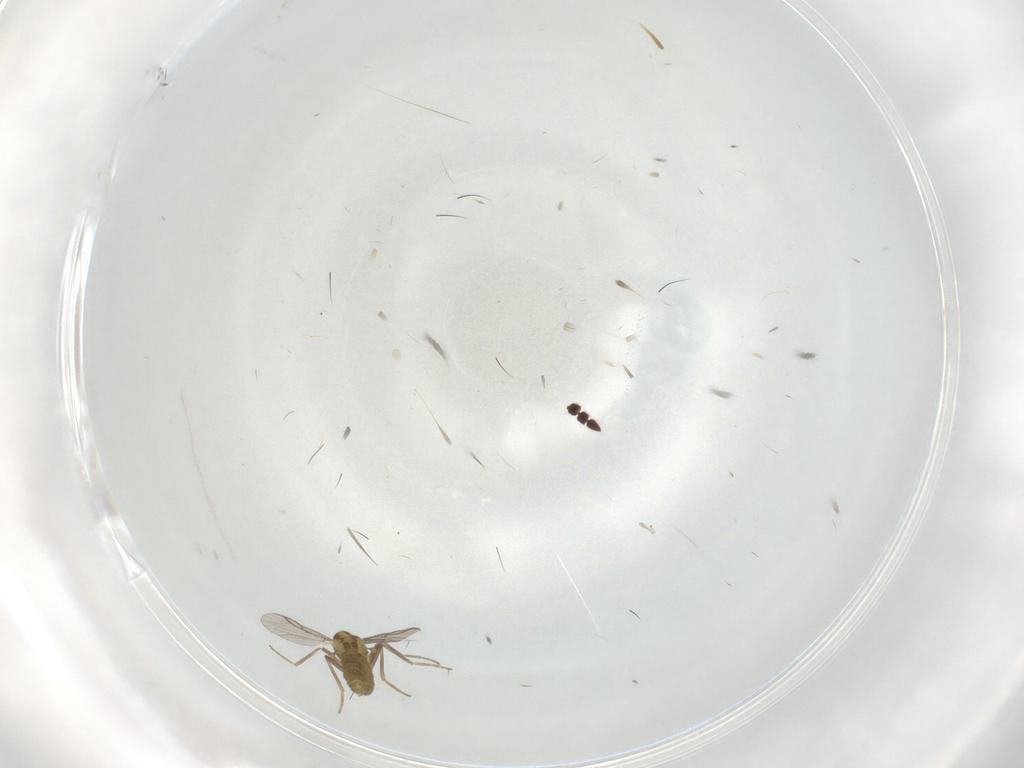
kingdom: Animalia
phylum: Arthropoda
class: Insecta
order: Diptera
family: Chironomidae
